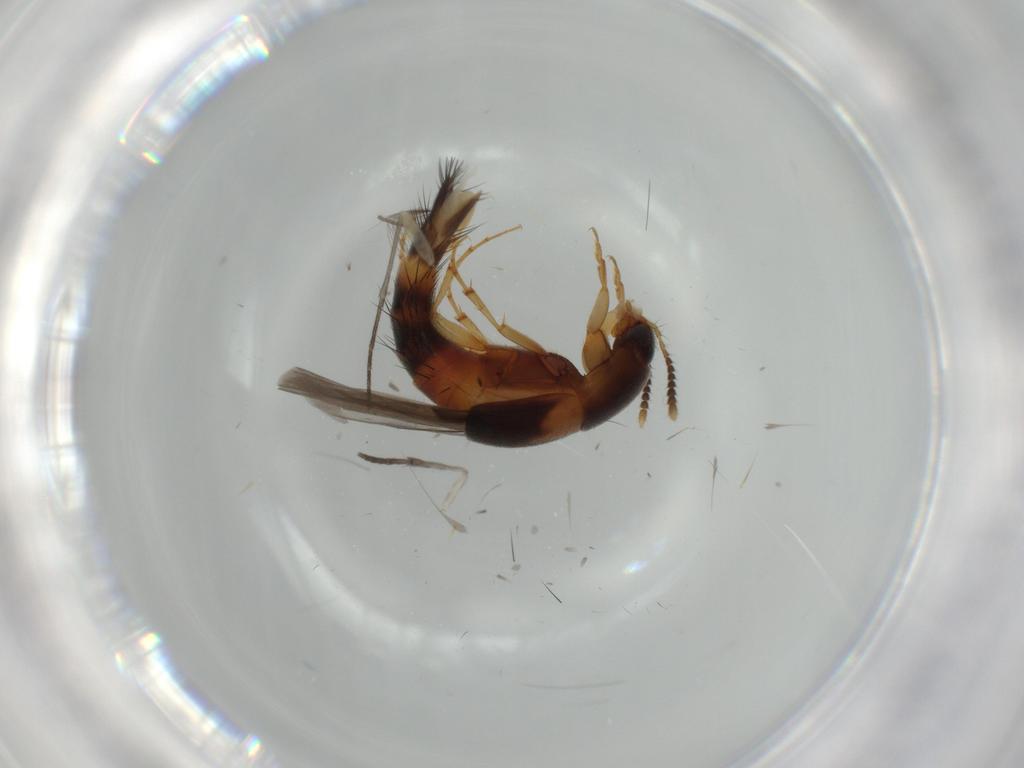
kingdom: Animalia
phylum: Arthropoda
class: Insecta
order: Coleoptera
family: Staphylinidae
